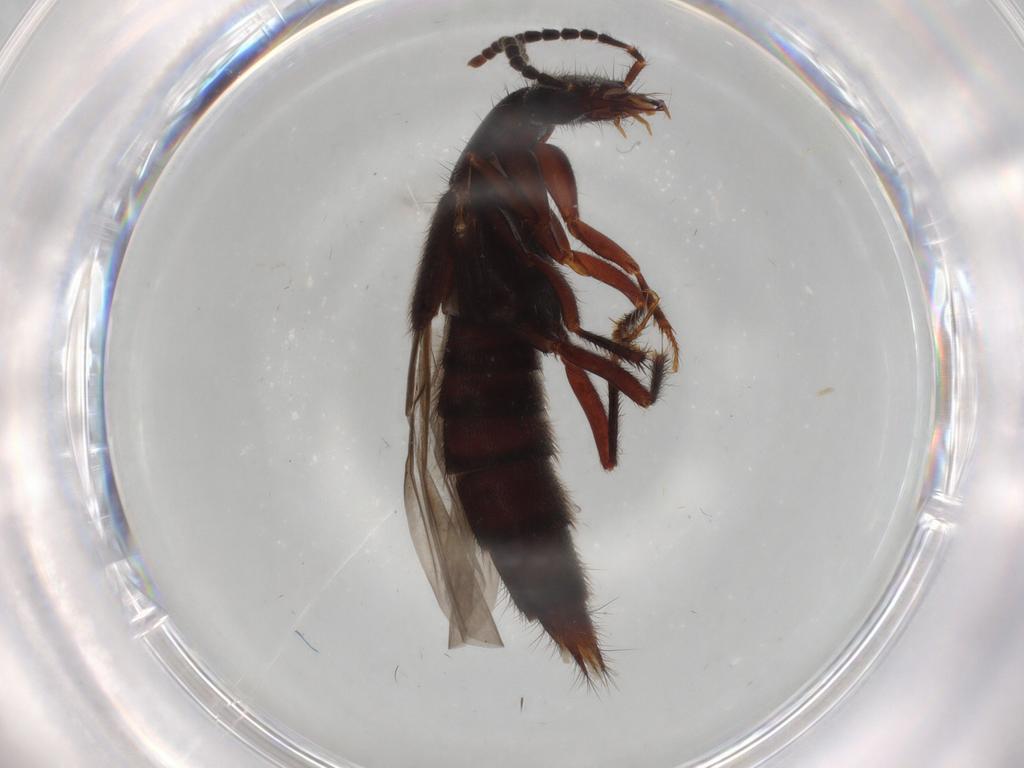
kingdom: Animalia
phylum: Arthropoda
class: Insecta
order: Coleoptera
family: Staphylinidae
